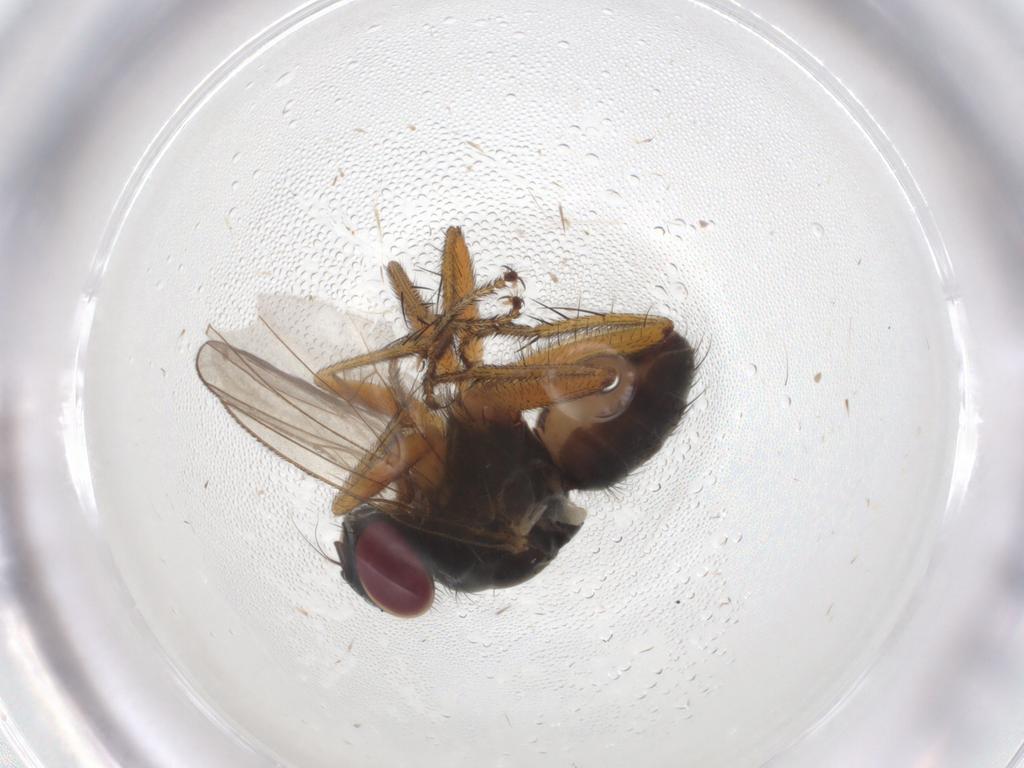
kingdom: Animalia
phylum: Arthropoda
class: Insecta
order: Diptera
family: Muscidae
